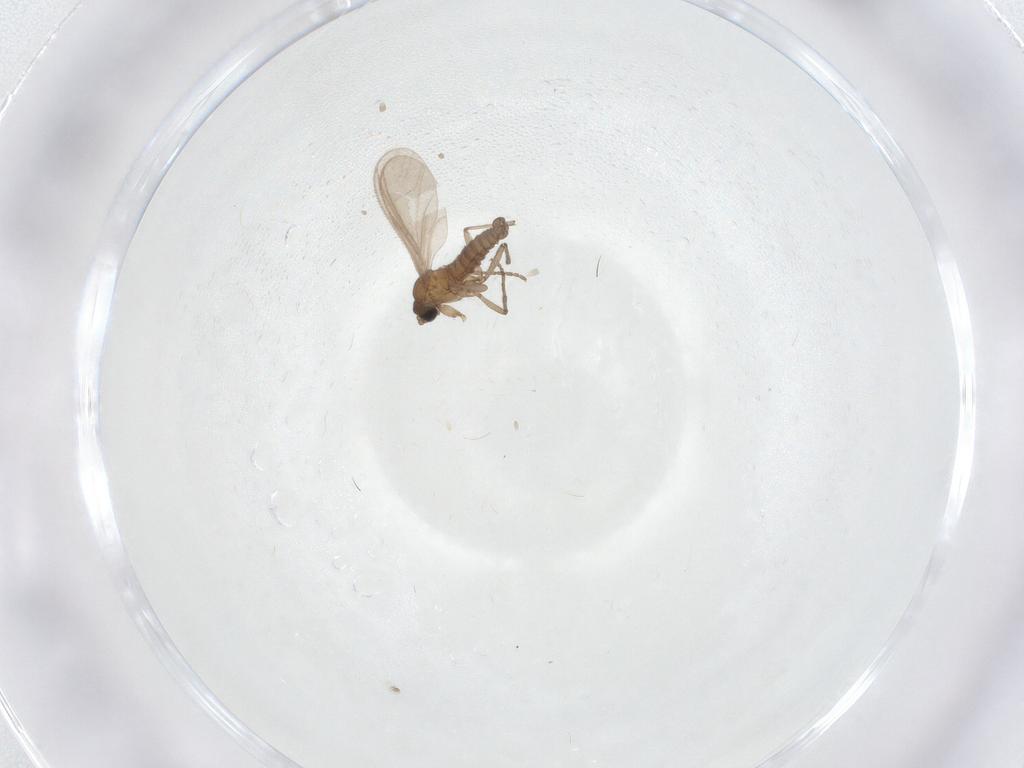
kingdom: Animalia
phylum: Arthropoda
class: Insecta
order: Diptera
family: Sciaridae
